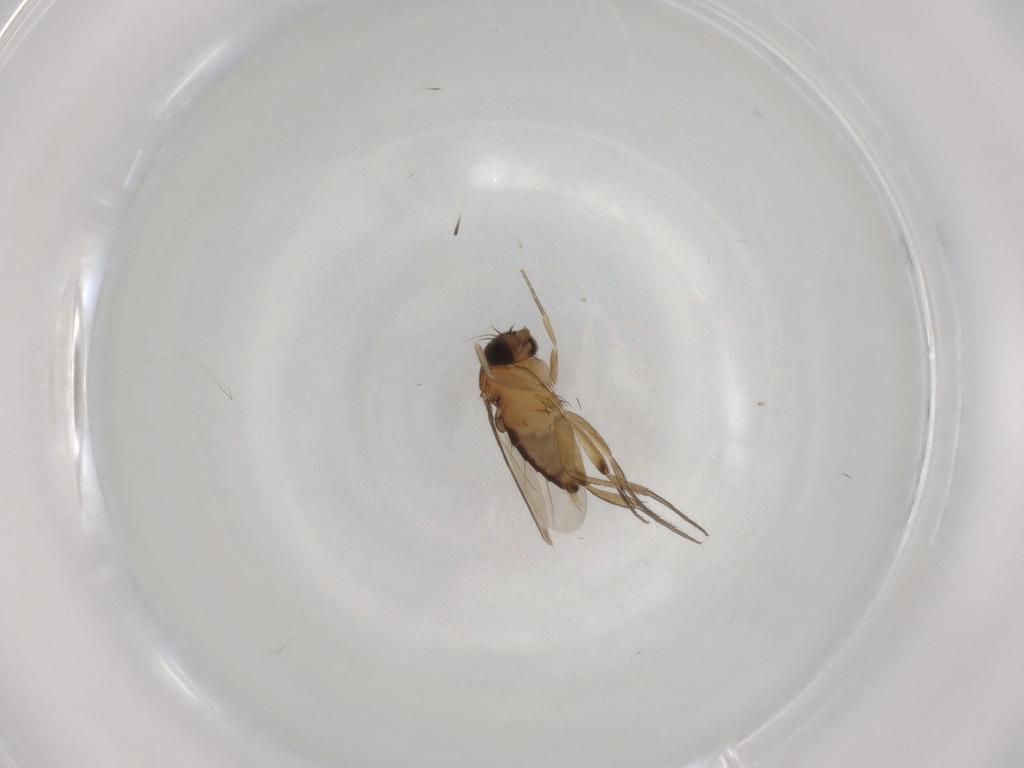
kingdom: Animalia
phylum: Arthropoda
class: Insecta
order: Diptera
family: Phoridae
